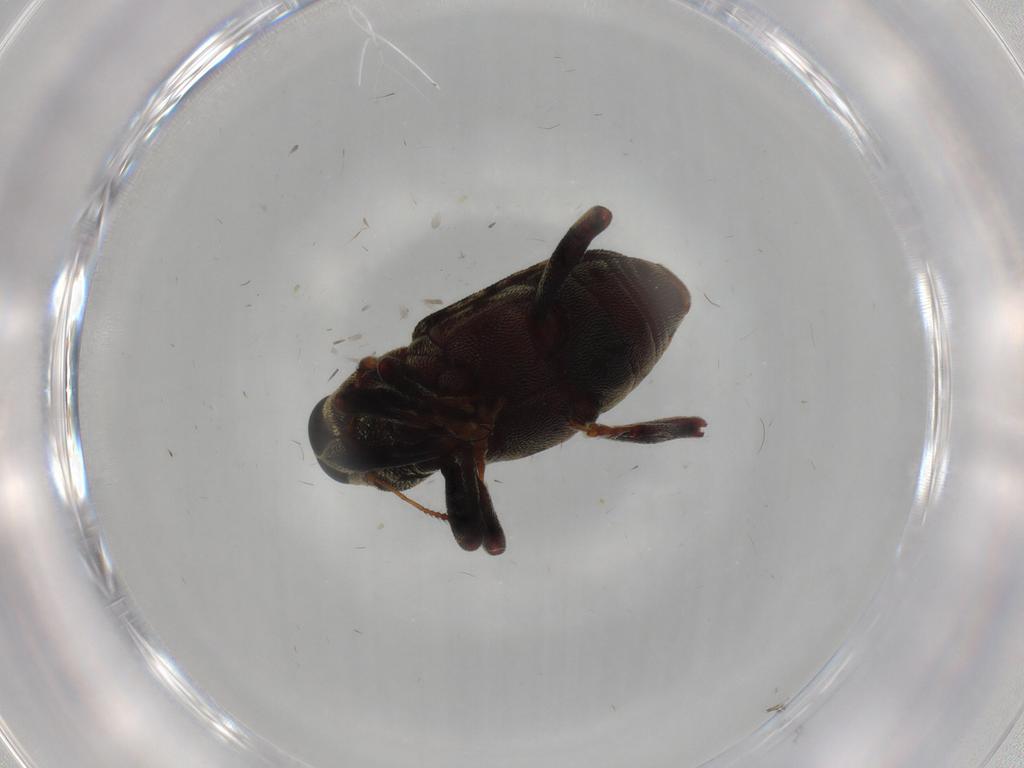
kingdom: Animalia
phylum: Arthropoda
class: Insecta
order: Coleoptera
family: Curculionidae
